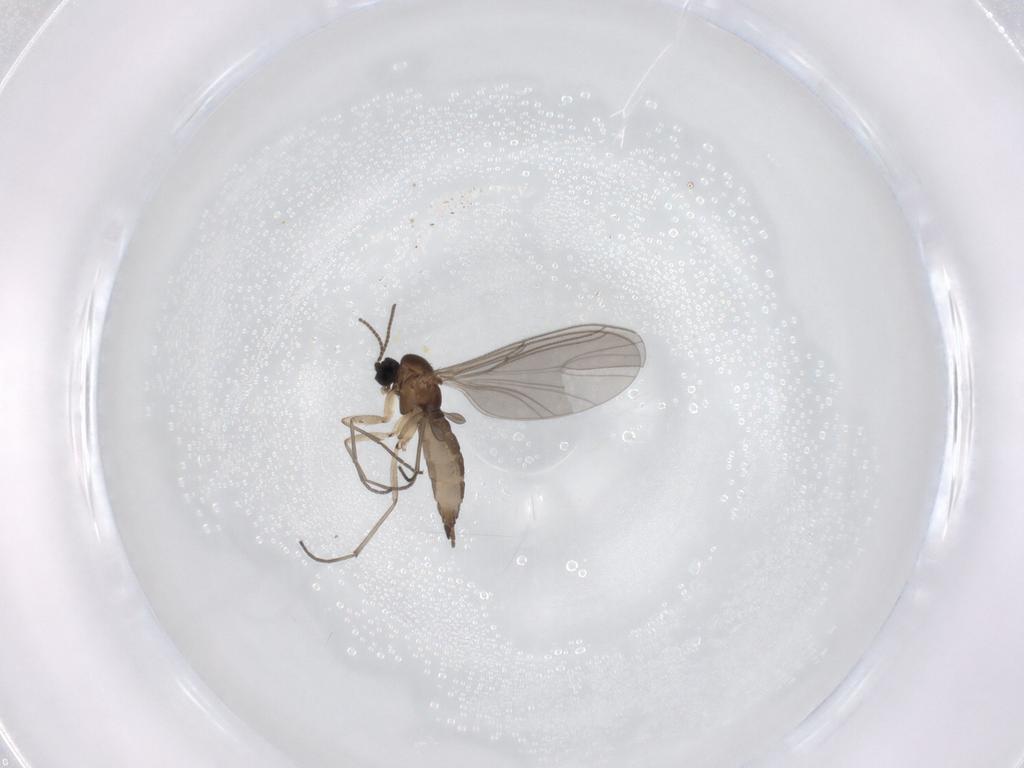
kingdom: Animalia
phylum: Arthropoda
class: Insecta
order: Diptera
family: Sciaridae
